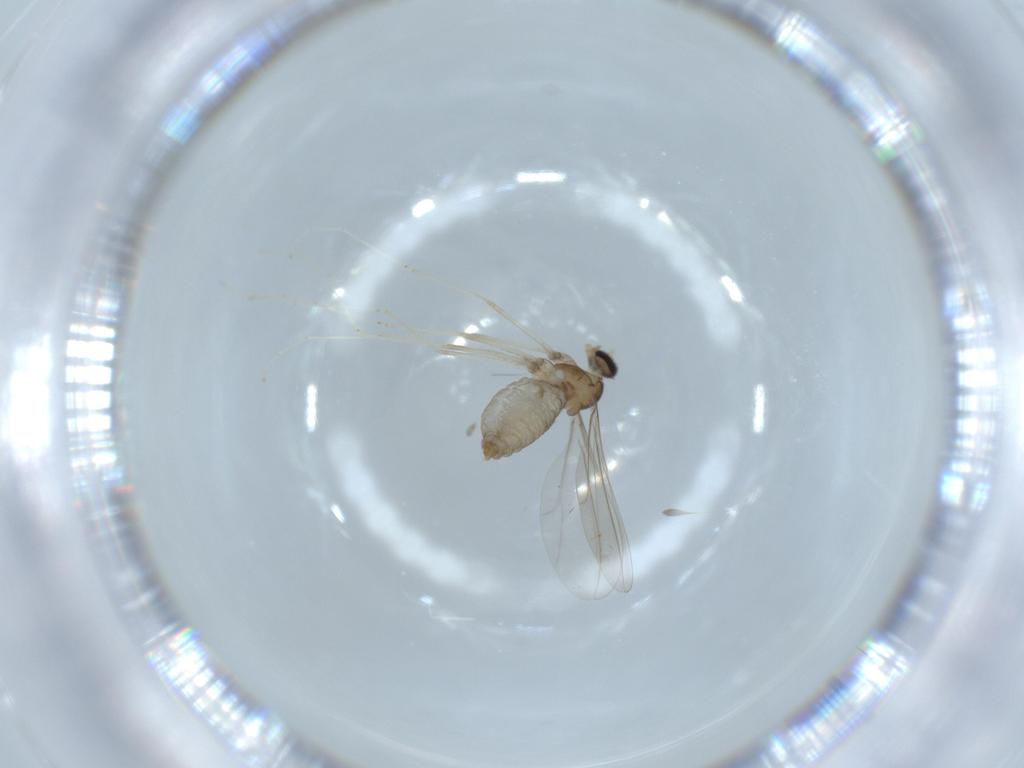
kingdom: Animalia
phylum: Arthropoda
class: Insecta
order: Diptera
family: Cecidomyiidae
